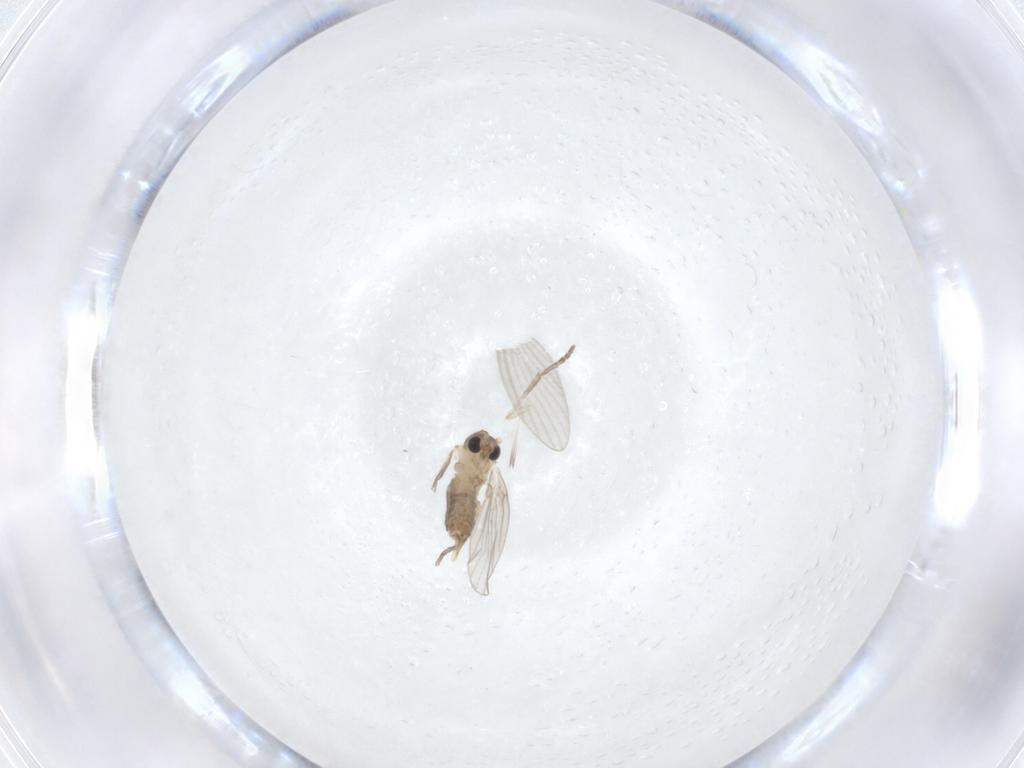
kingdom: Animalia
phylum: Arthropoda
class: Insecta
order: Diptera
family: Psychodidae
